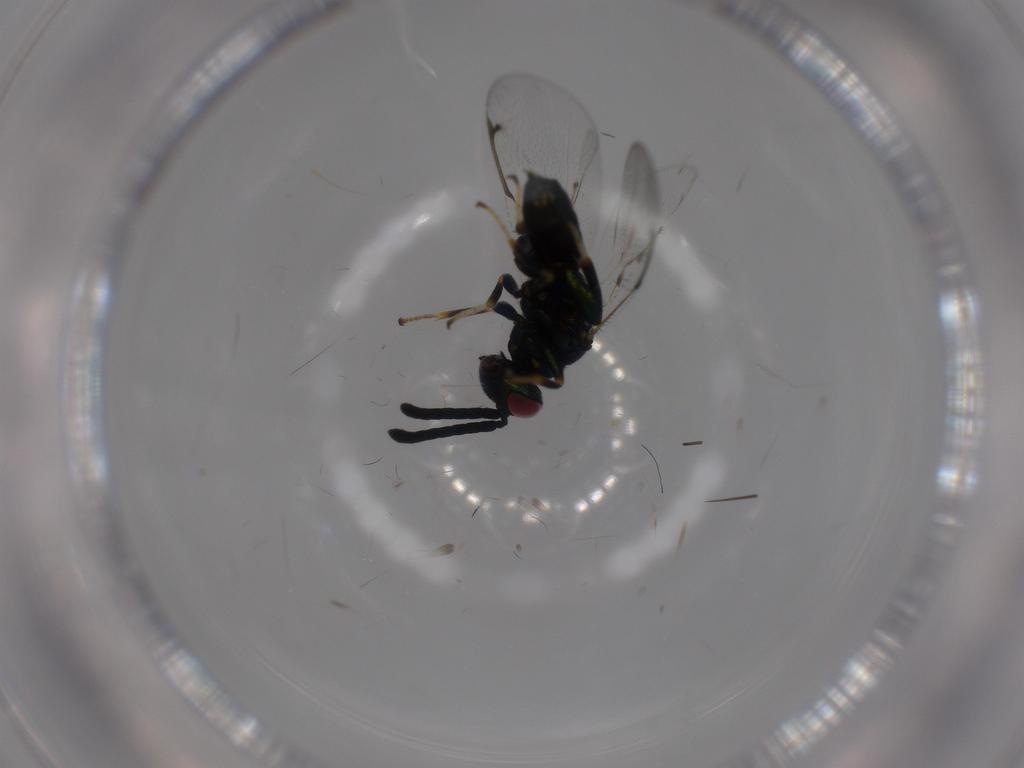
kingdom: Animalia
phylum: Arthropoda
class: Insecta
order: Hymenoptera
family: Torymidae
